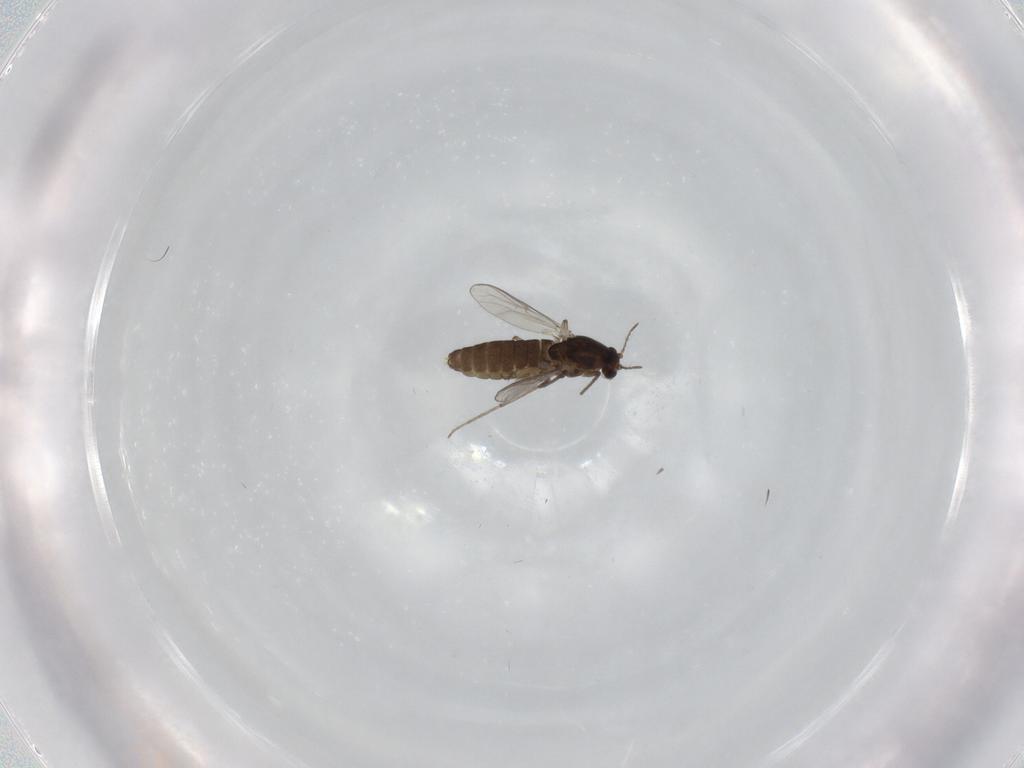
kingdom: Animalia
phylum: Arthropoda
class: Insecta
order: Diptera
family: Chironomidae
